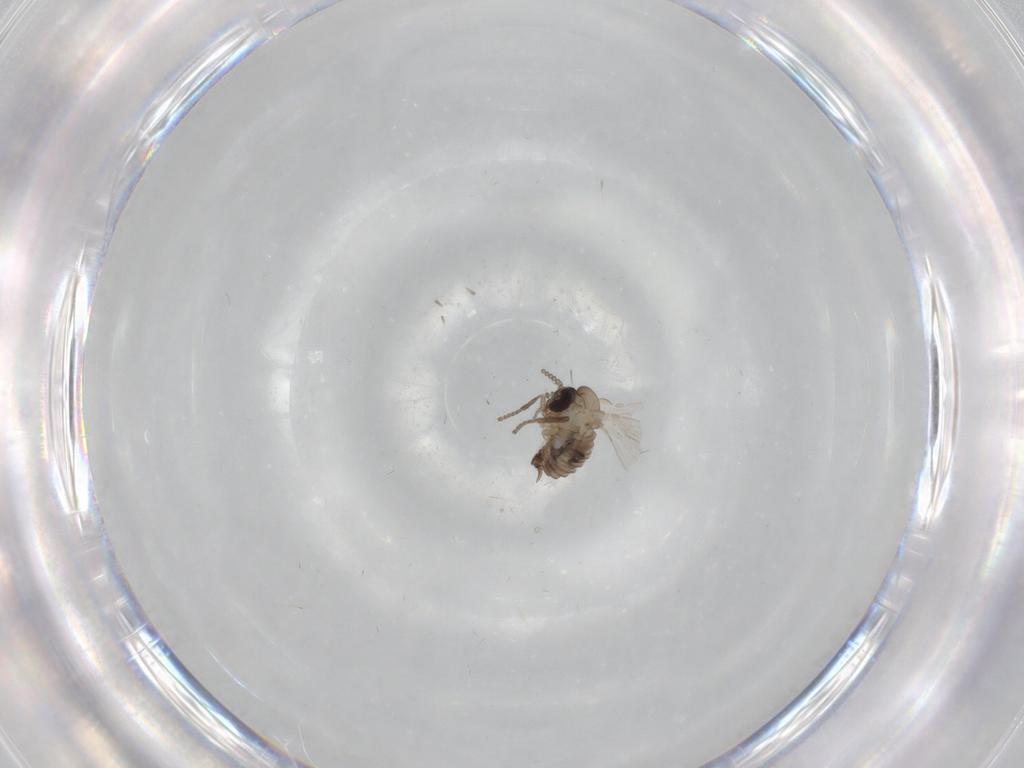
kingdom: Animalia
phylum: Arthropoda
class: Insecta
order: Diptera
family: Psychodidae
